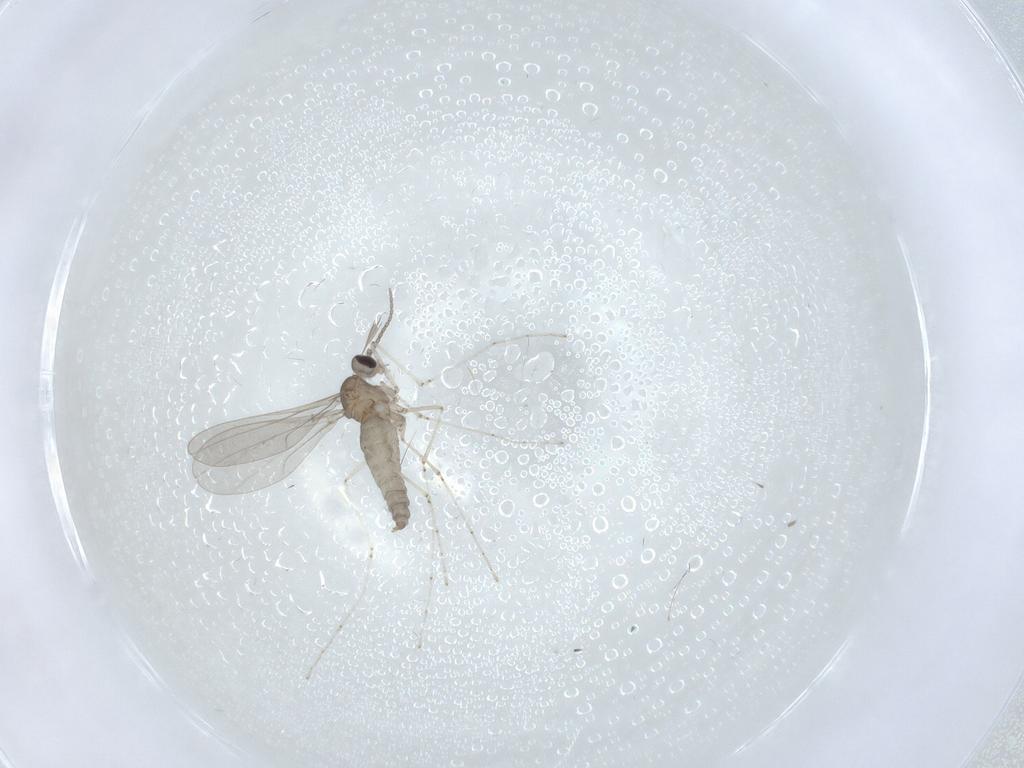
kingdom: Animalia
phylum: Arthropoda
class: Insecta
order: Diptera
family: Cecidomyiidae
